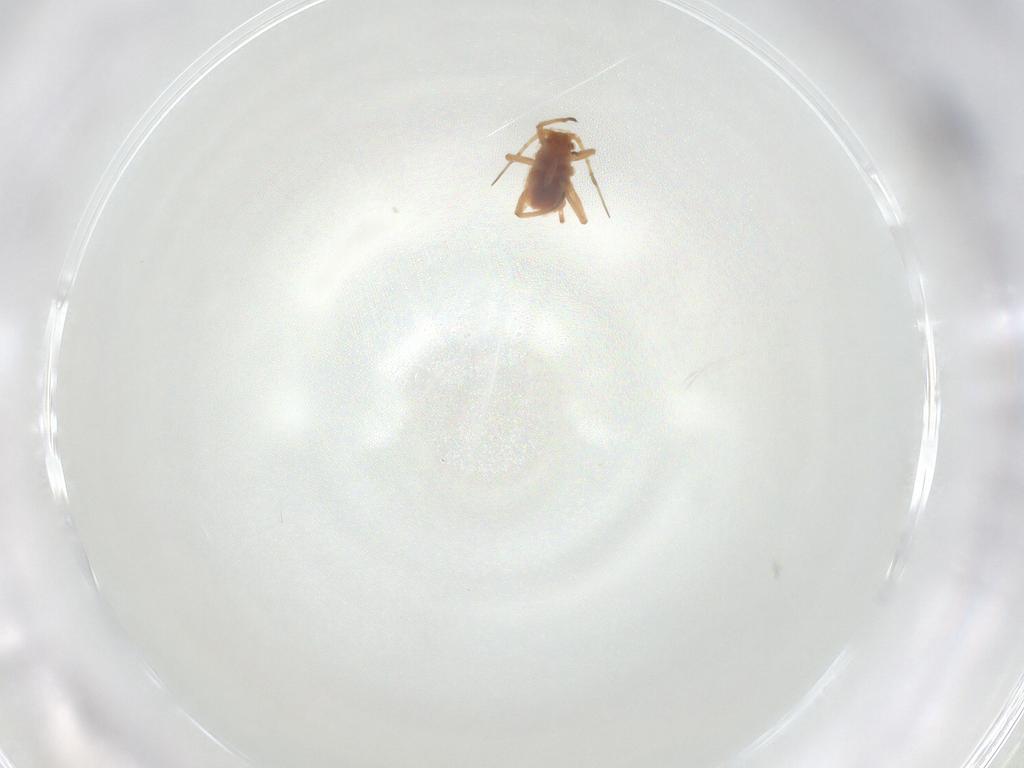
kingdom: Animalia
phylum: Arthropoda
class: Insecta
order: Hemiptera
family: Aphididae
